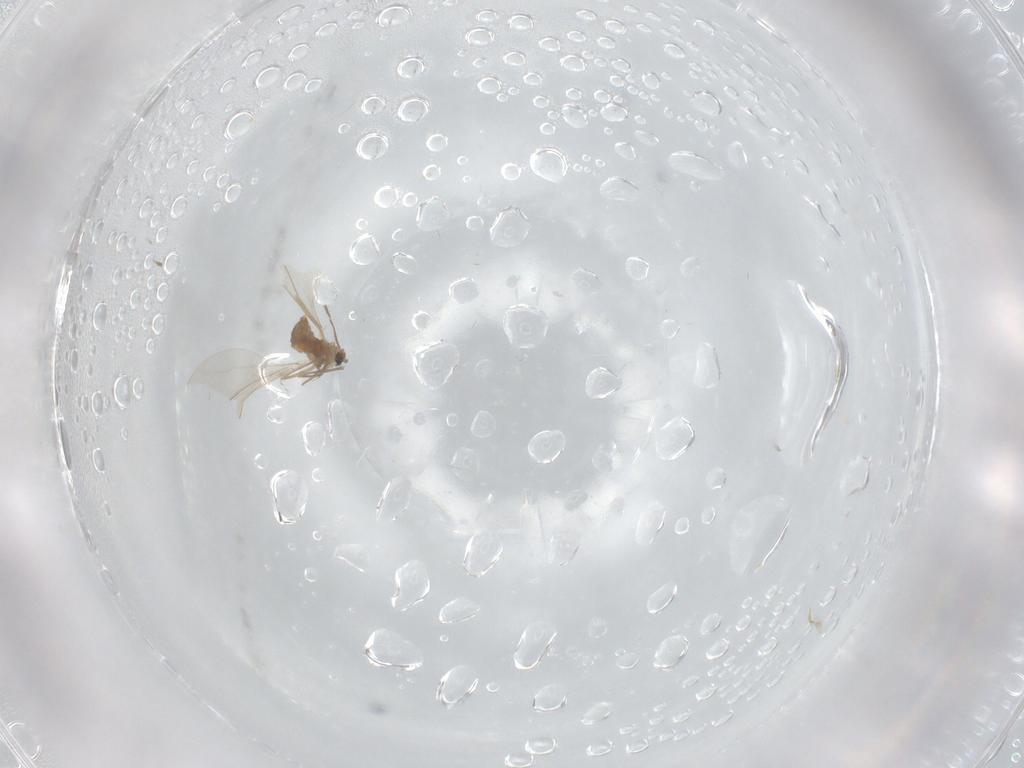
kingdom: Animalia
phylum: Arthropoda
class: Insecta
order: Diptera
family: Cecidomyiidae
